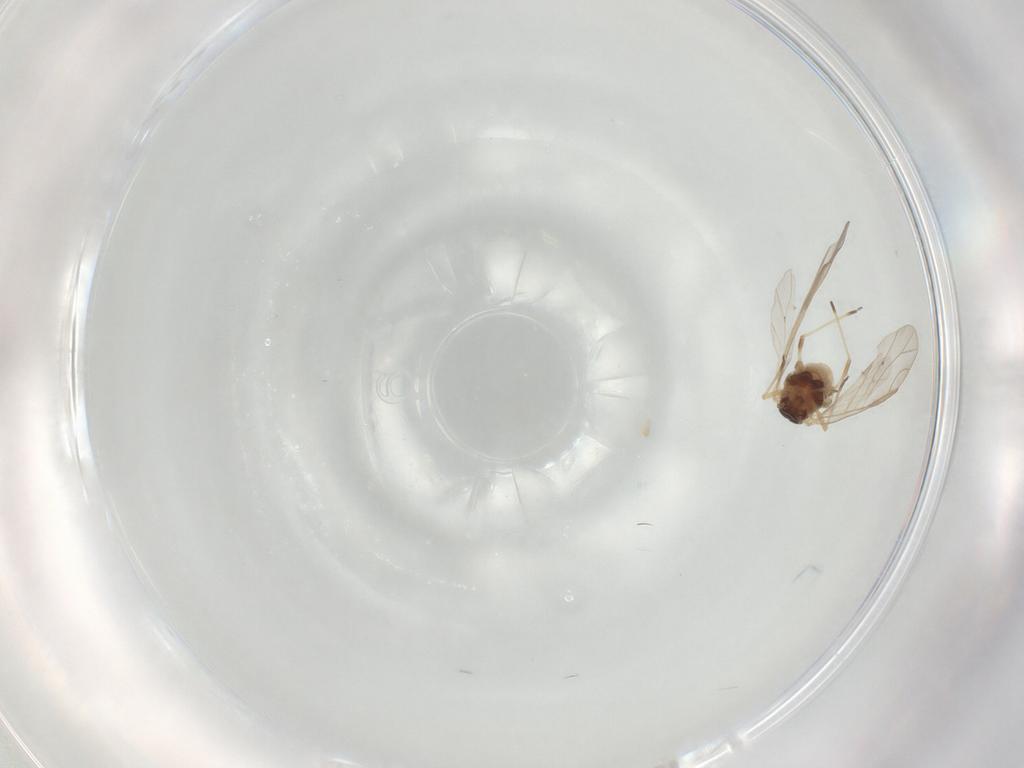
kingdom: Animalia
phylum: Arthropoda
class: Insecta
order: Hemiptera
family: Aphididae
